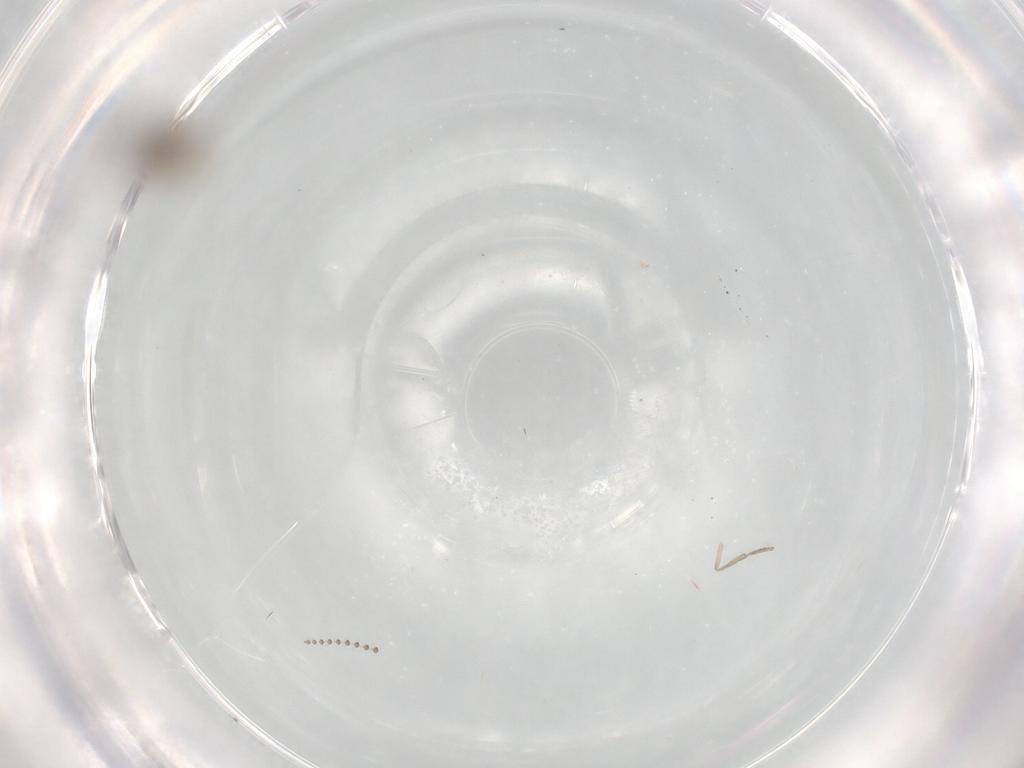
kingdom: Animalia
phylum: Arthropoda
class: Insecta
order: Diptera
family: Psychodidae
